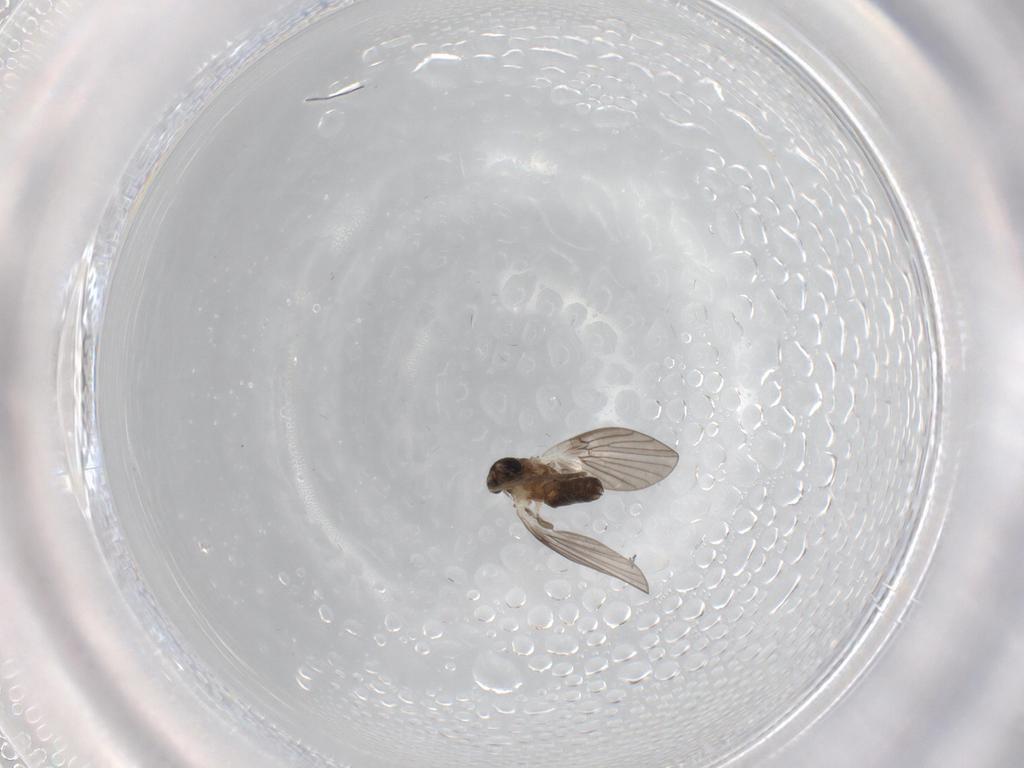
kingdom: Animalia
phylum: Arthropoda
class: Insecta
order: Diptera
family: Psychodidae
